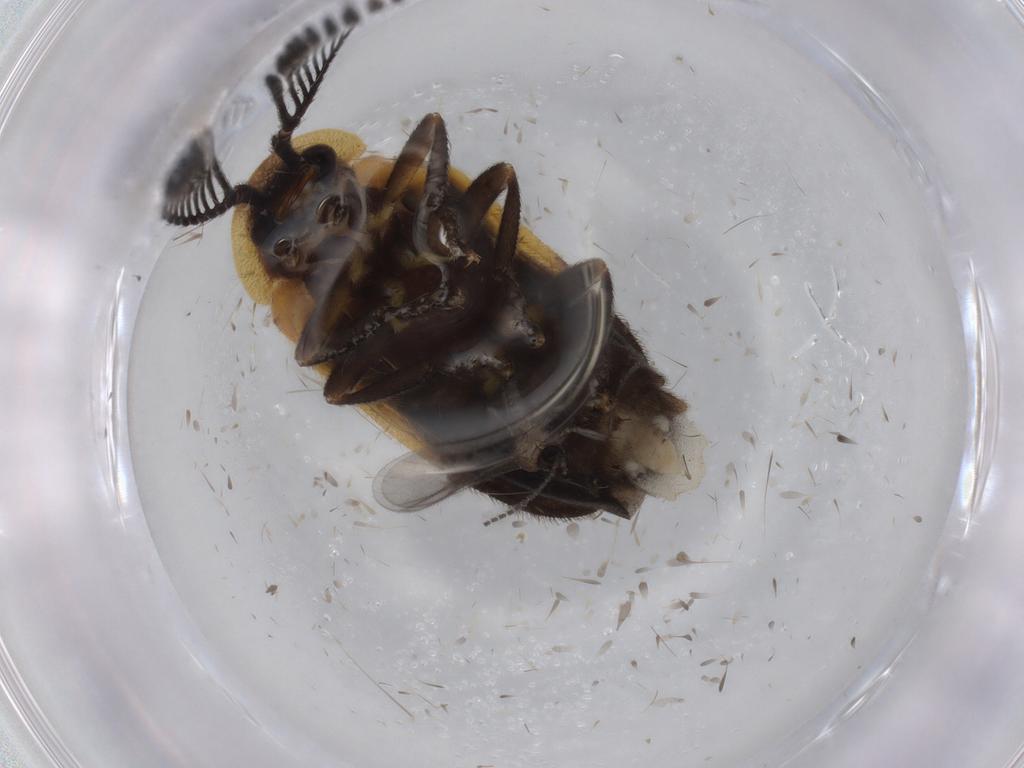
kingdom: Animalia
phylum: Arthropoda
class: Insecta
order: Coleoptera
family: Lampyridae
